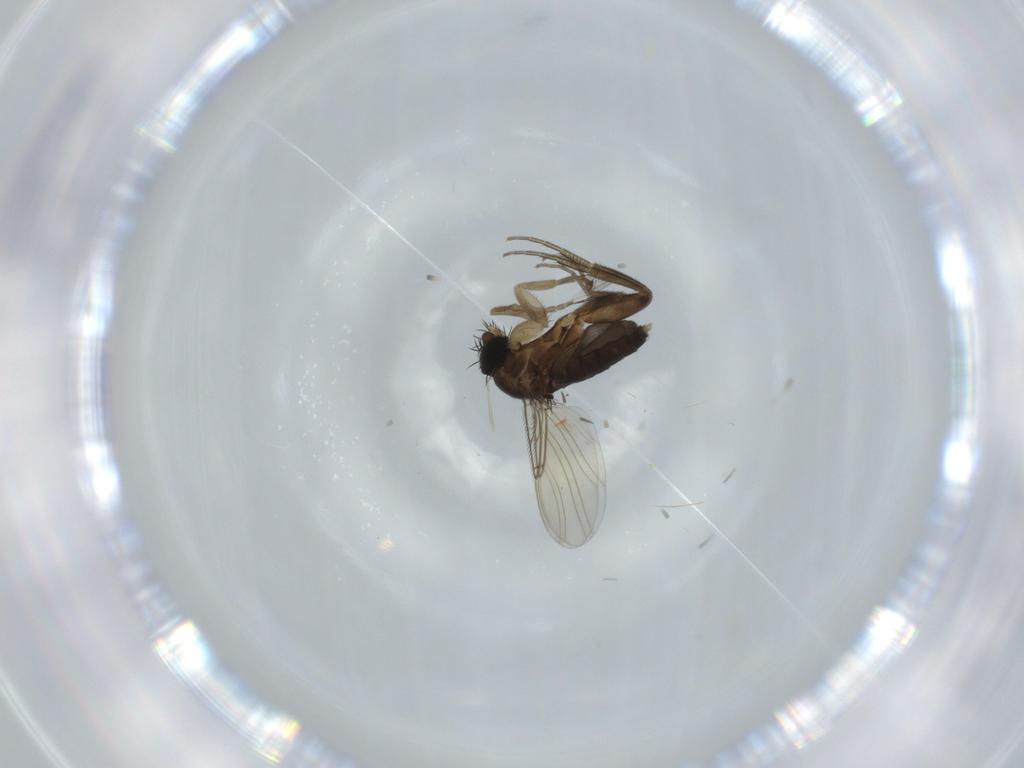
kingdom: Animalia
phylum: Arthropoda
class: Insecta
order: Diptera
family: Phoridae
